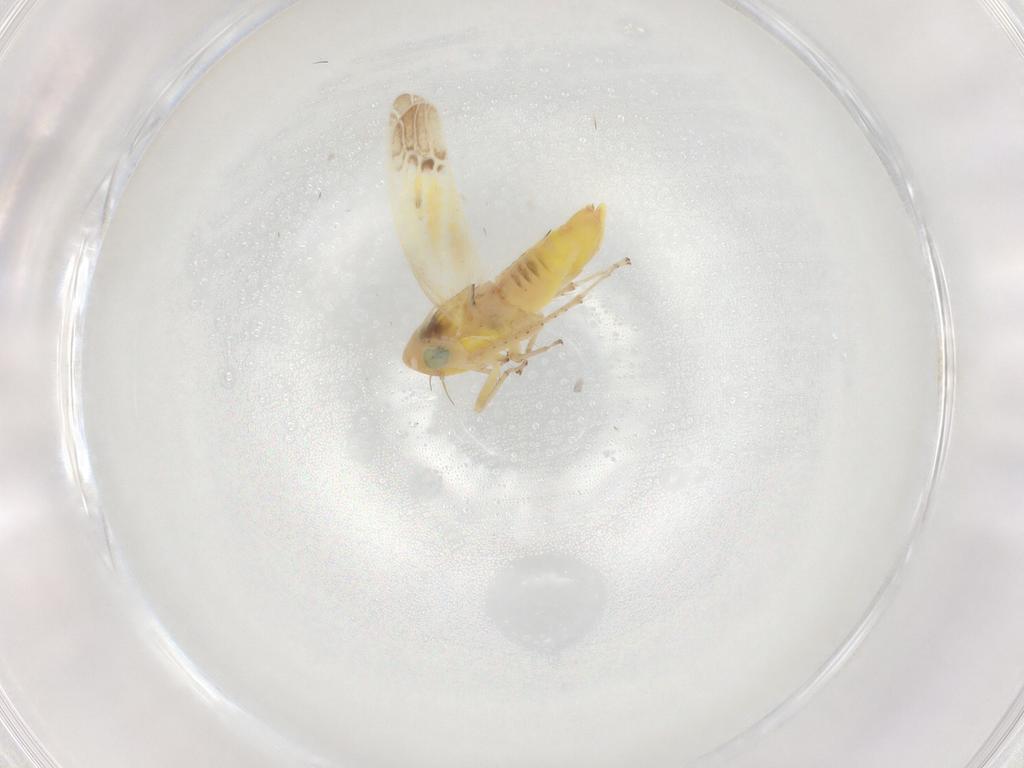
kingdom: Animalia
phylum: Arthropoda
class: Insecta
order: Hemiptera
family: Cicadellidae
